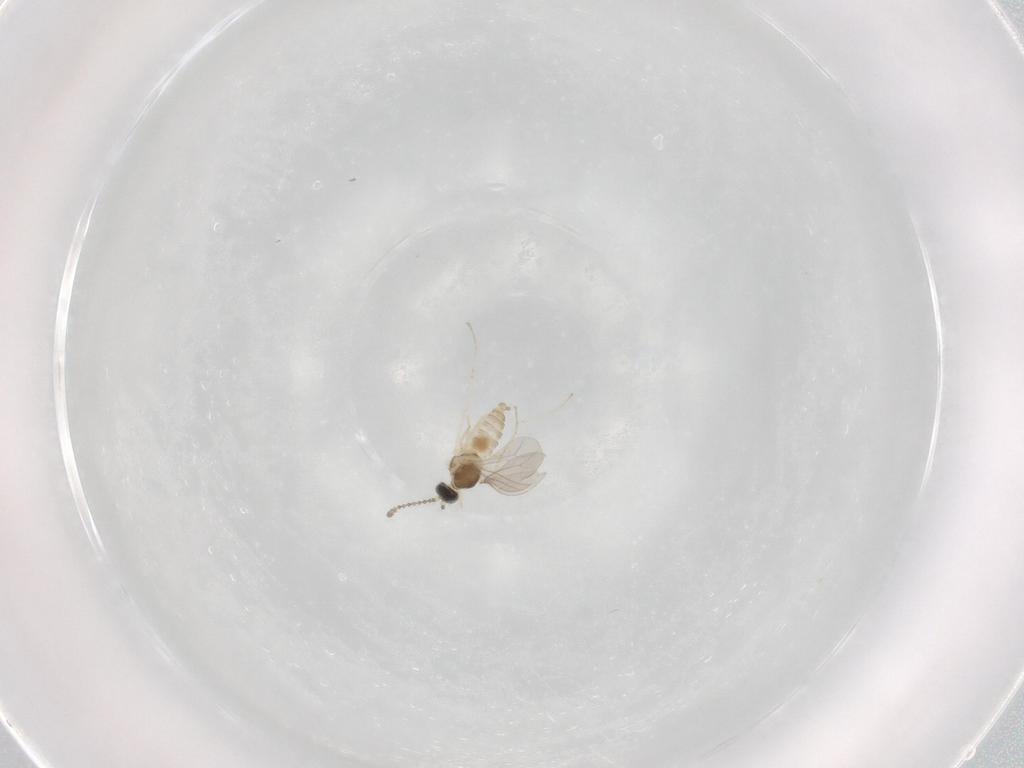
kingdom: Animalia
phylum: Arthropoda
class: Insecta
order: Diptera
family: Cecidomyiidae
